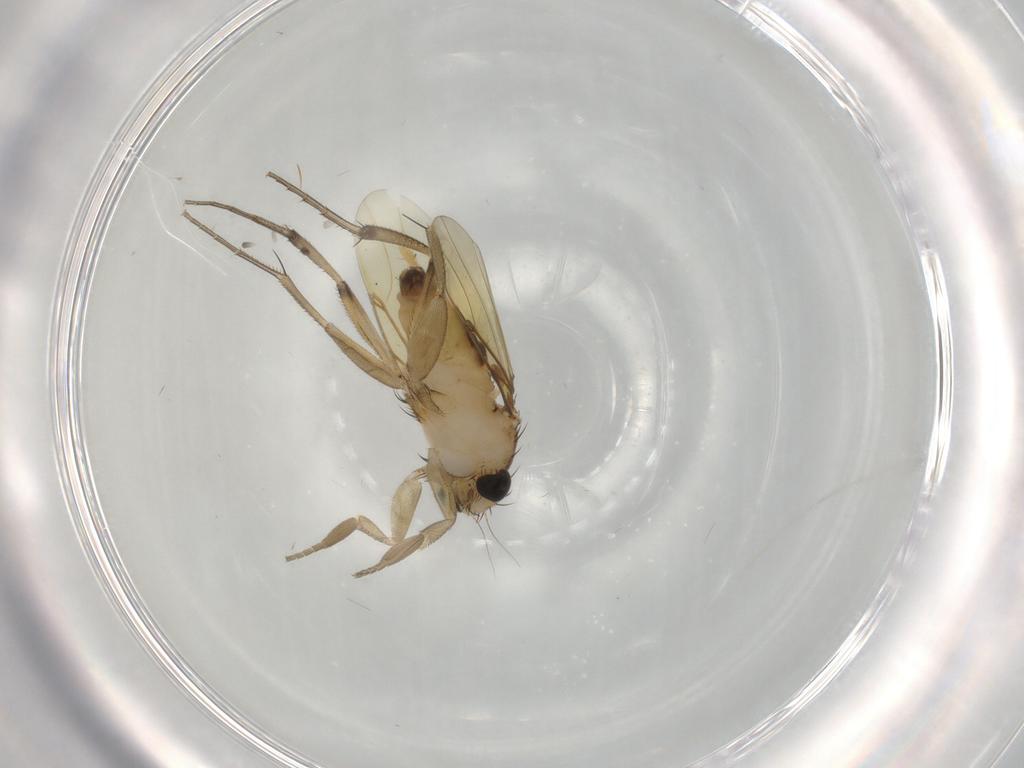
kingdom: Animalia
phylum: Arthropoda
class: Insecta
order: Diptera
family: Phoridae
